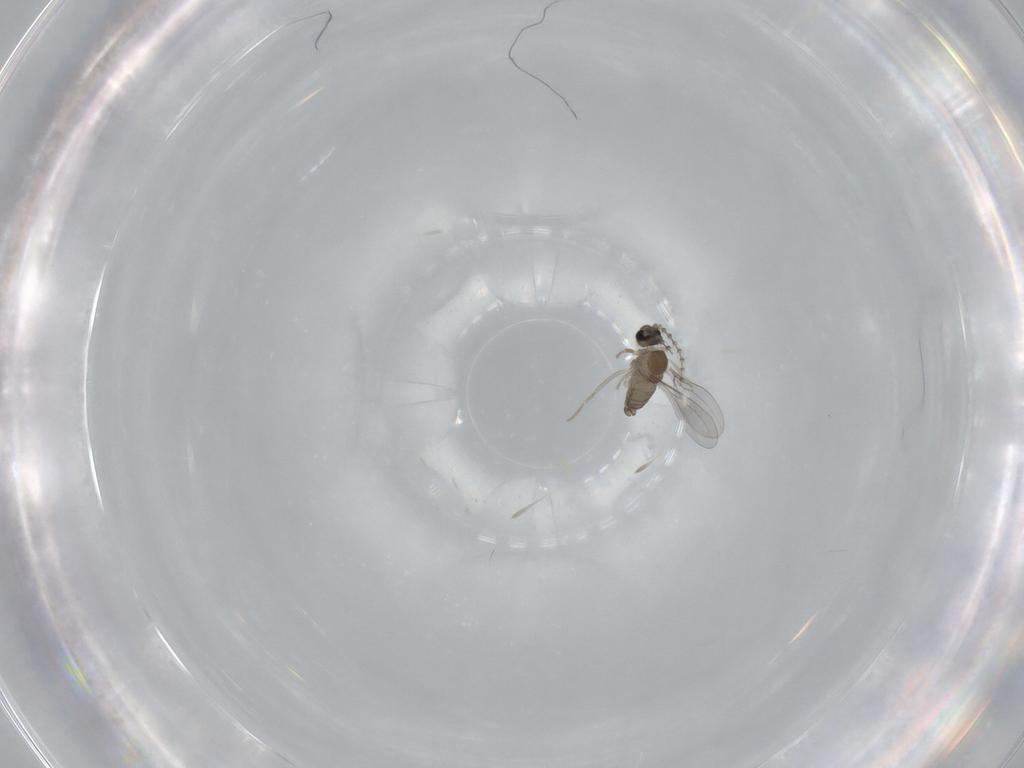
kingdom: Animalia
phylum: Arthropoda
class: Insecta
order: Diptera
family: Cecidomyiidae
